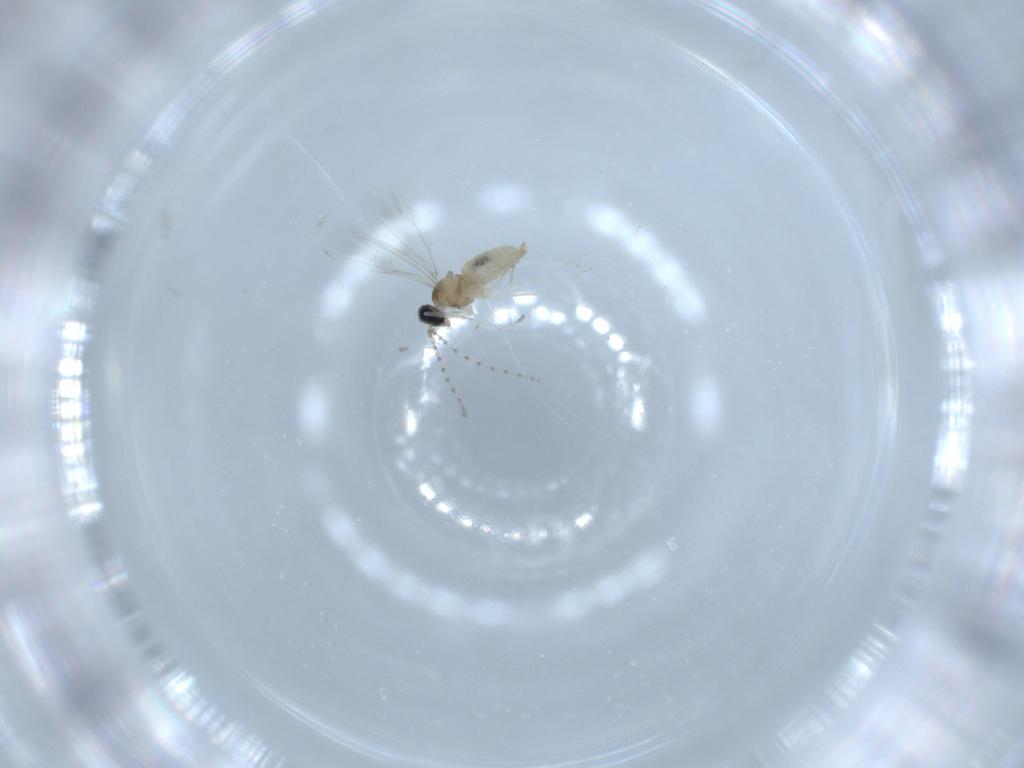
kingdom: Animalia
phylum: Arthropoda
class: Insecta
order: Diptera
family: Cecidomyiidae
